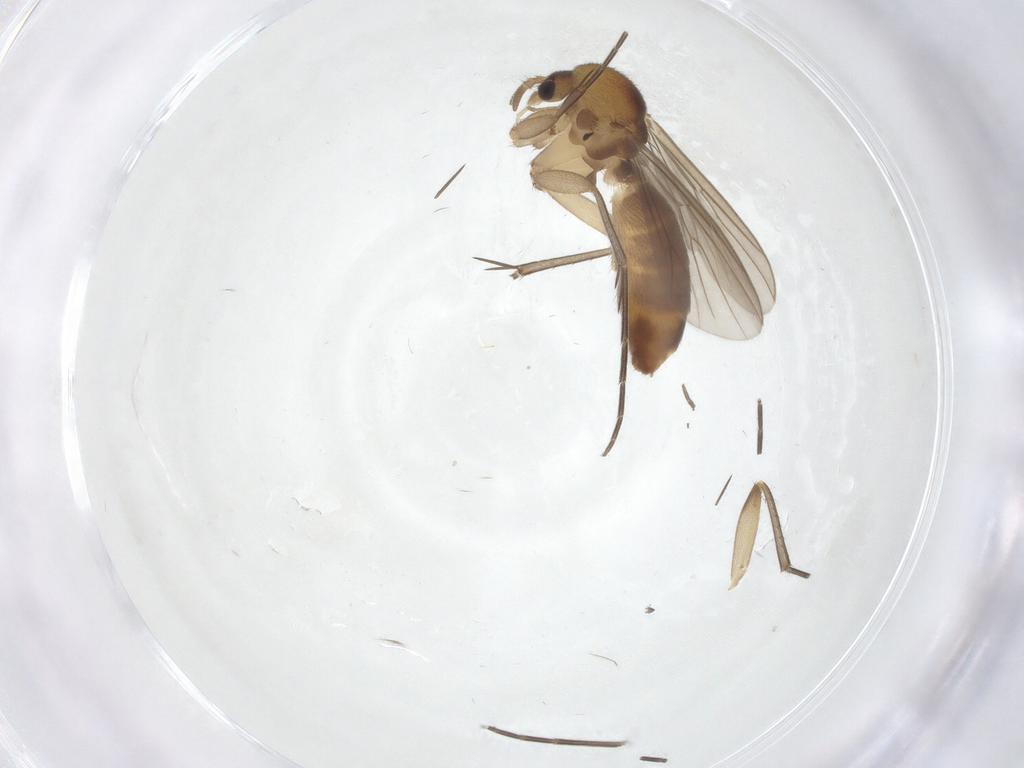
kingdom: Animalia
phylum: Arthropoda
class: Insecta
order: Diptera
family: Mycetophilidae
